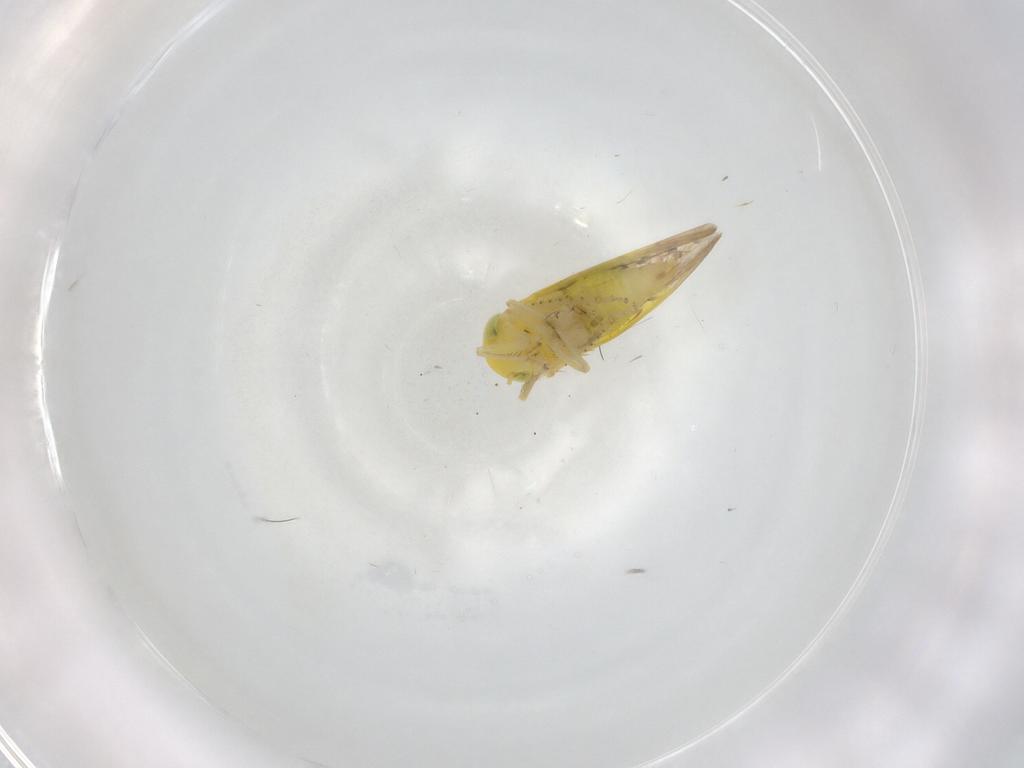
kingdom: Animalia
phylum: Arthropoda
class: Insecta
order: Hemiptera
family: Cicadellidae
